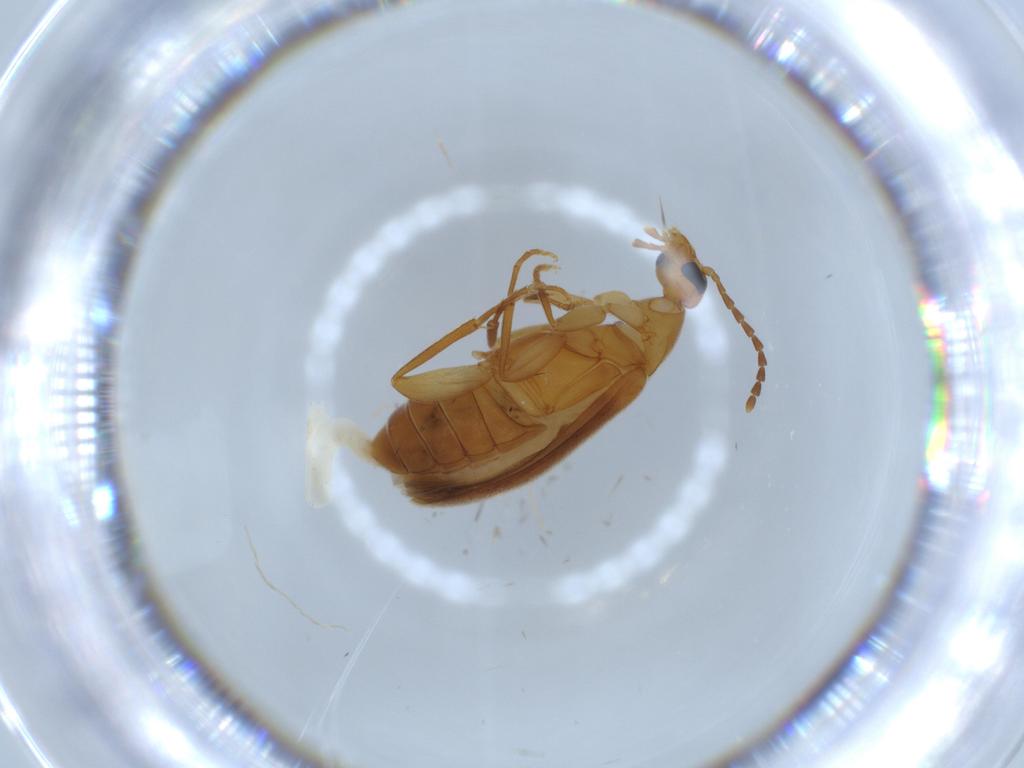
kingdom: Animalia
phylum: Arthropoda
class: Insecta
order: Coleoptera
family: Scraptiidae
